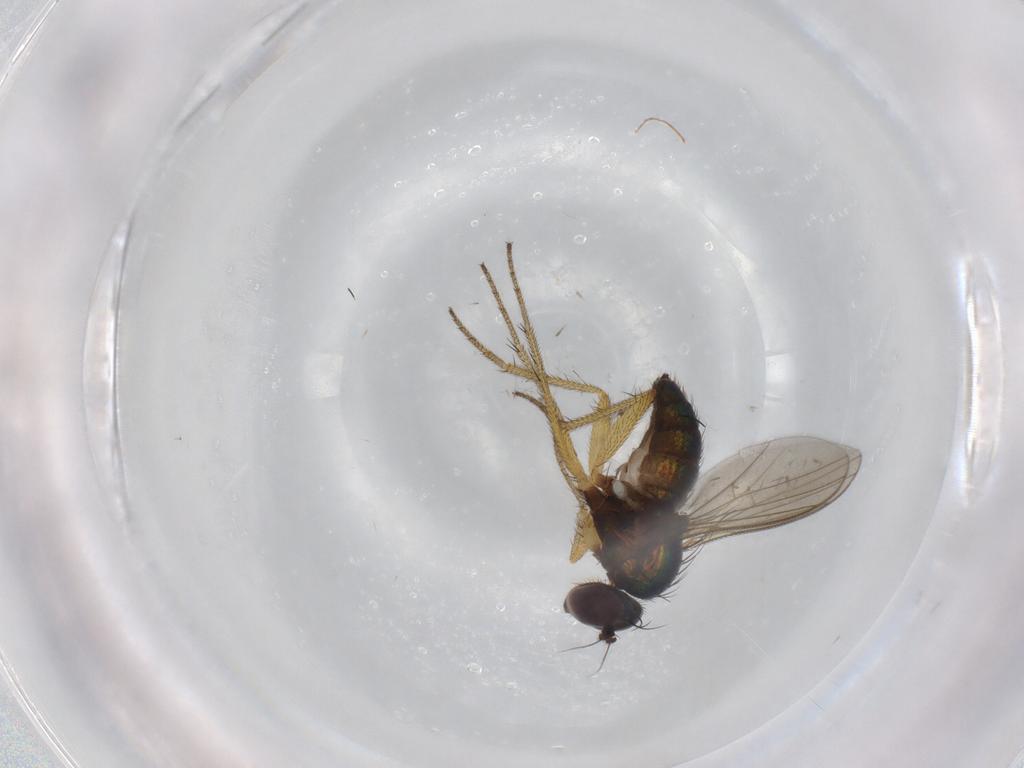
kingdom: Animalia
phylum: Arthropoda
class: Insecta
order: Diptera
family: Dolichopodidae
